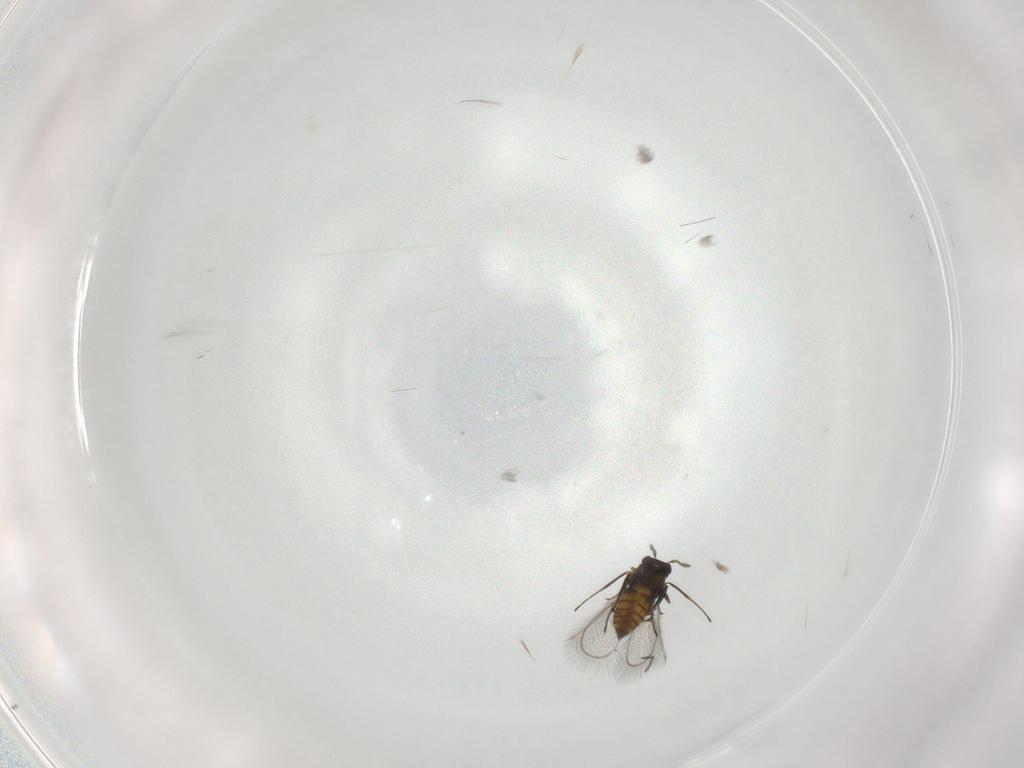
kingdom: Animalia
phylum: Arthropoda
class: Insecta
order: Hymenoptera
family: Trichogrammatidae
